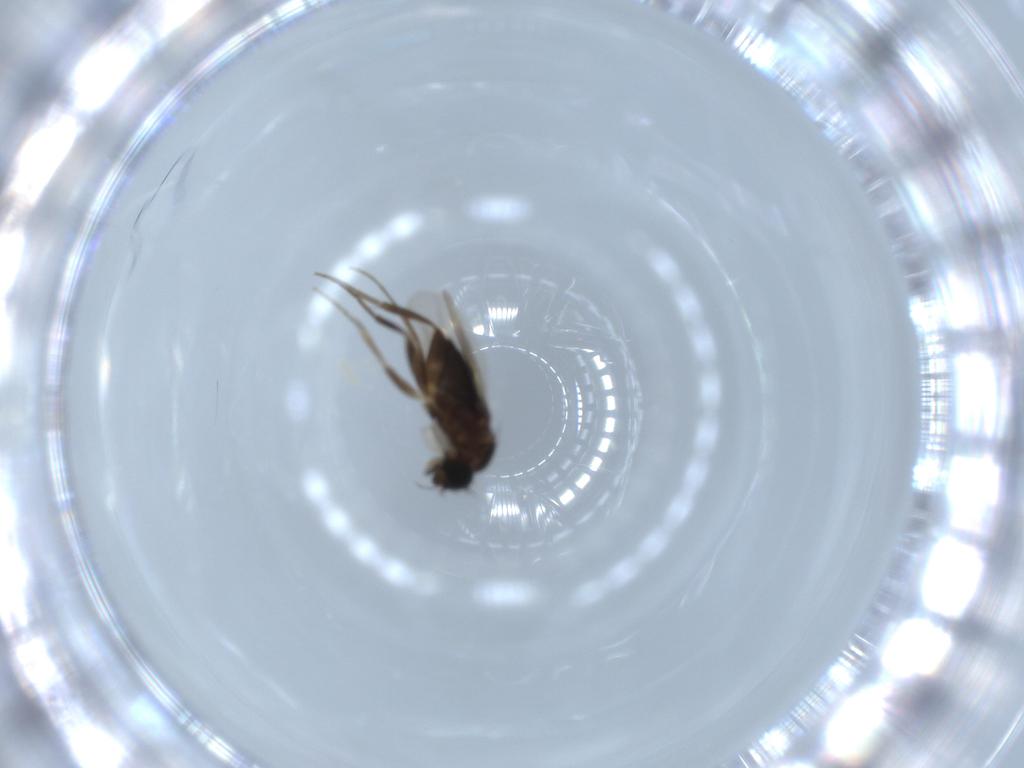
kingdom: Animalia
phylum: Arthropoda
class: Insecta
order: Diptera
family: Phoridae
